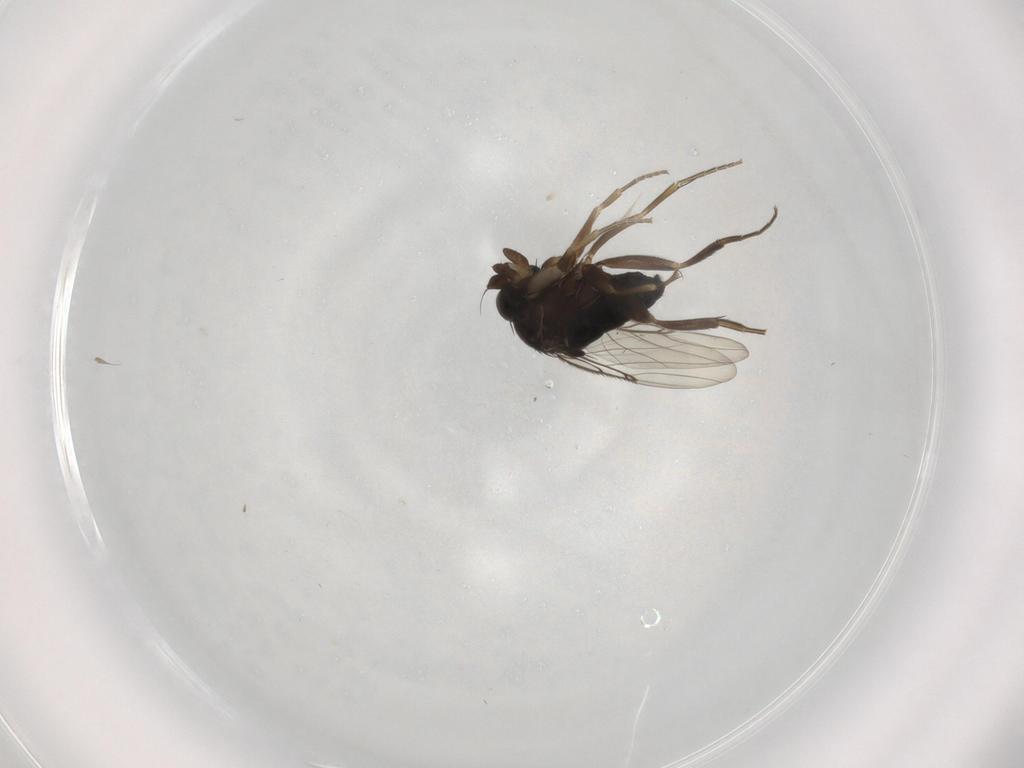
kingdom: Animalia
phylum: Arthropoda
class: Insecta
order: Diptera
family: Phoridae
